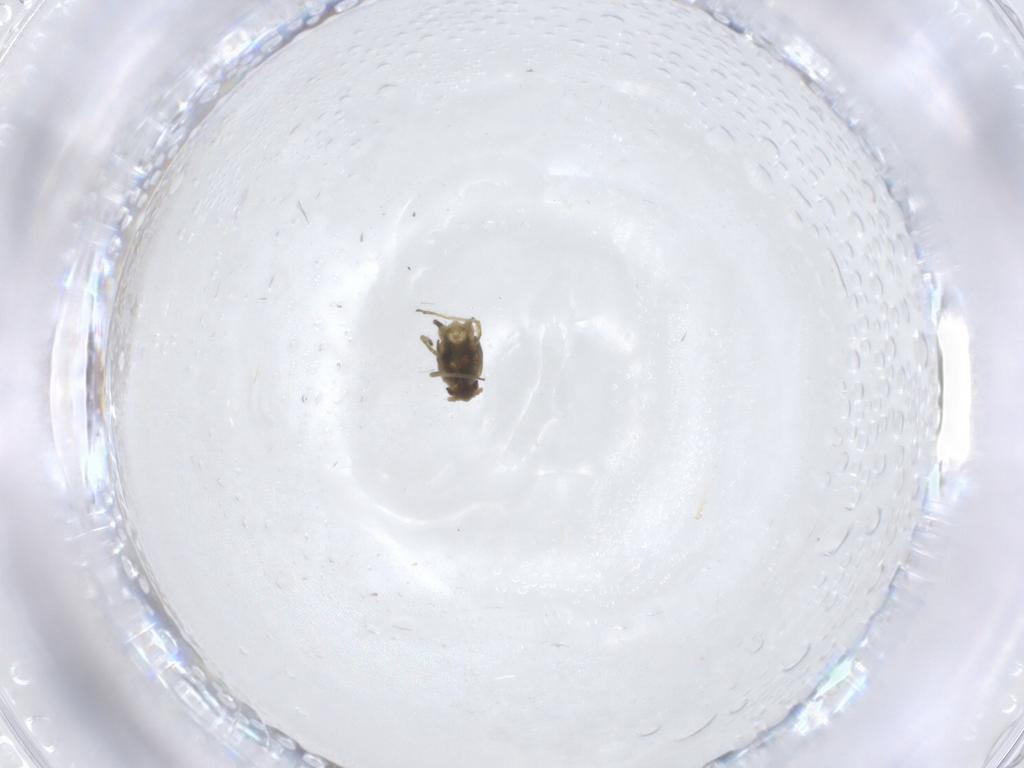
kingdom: Animalia
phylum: Arthropoda
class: Insecta
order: Hemiptera
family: Aphididae
